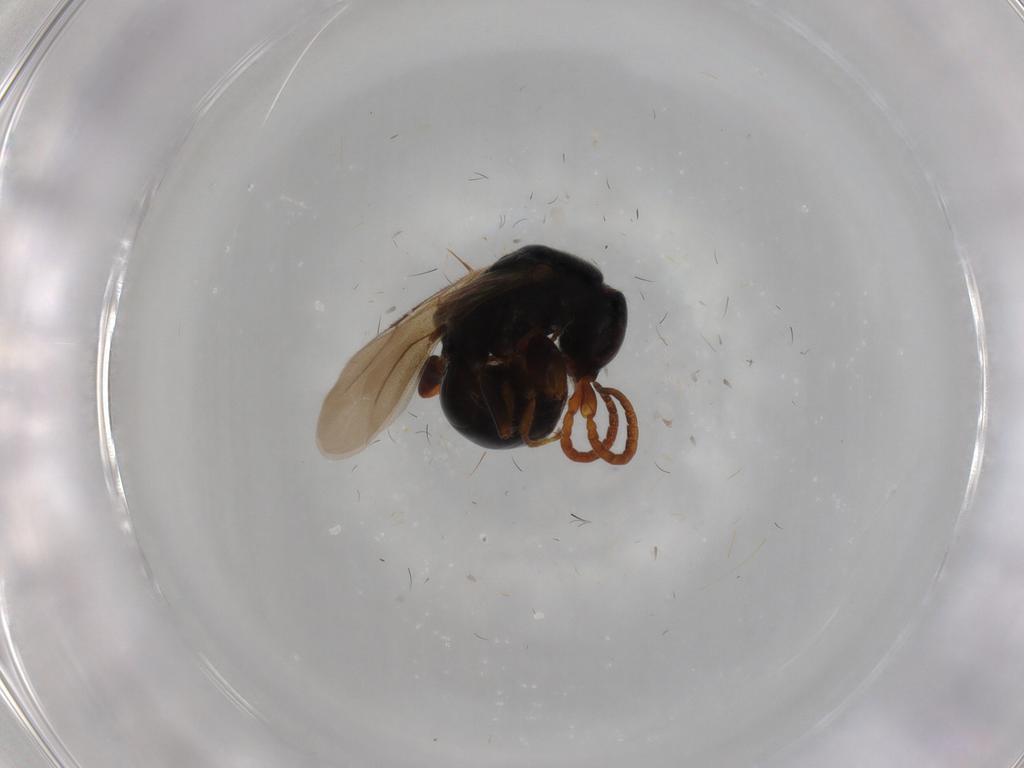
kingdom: Animalia
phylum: Arthropoda
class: Insecta
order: Hymenoptera
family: Bethylidae
